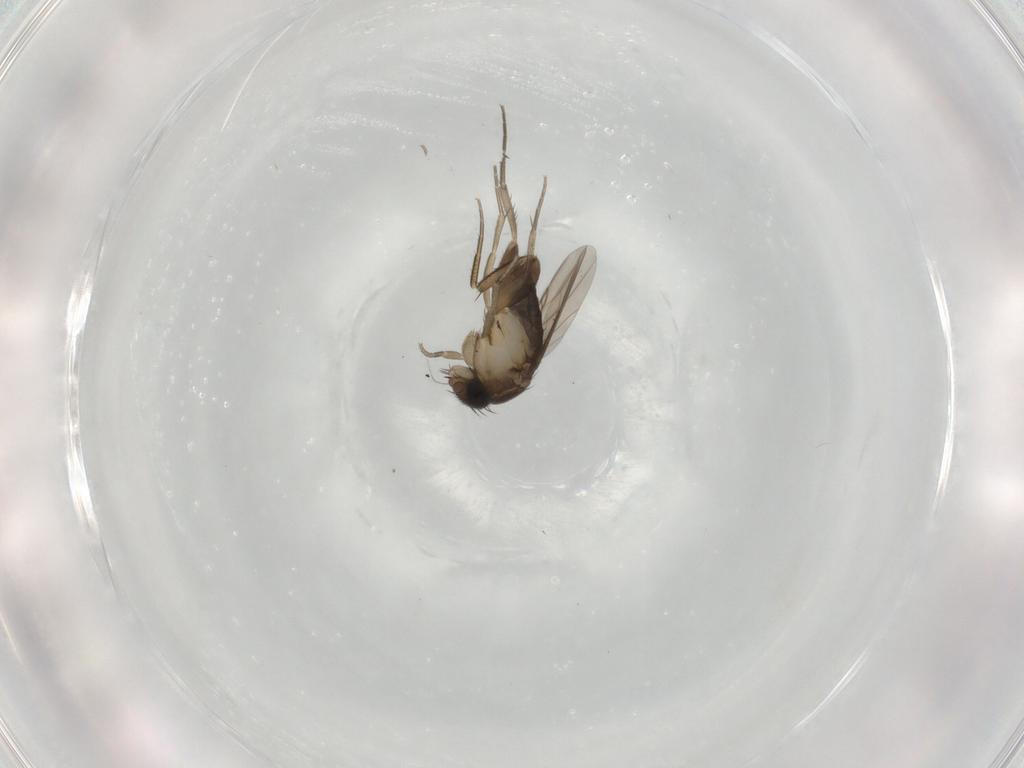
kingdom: Animalia
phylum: Arthropoda
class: Insecta
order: Diptera
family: Phoridae
